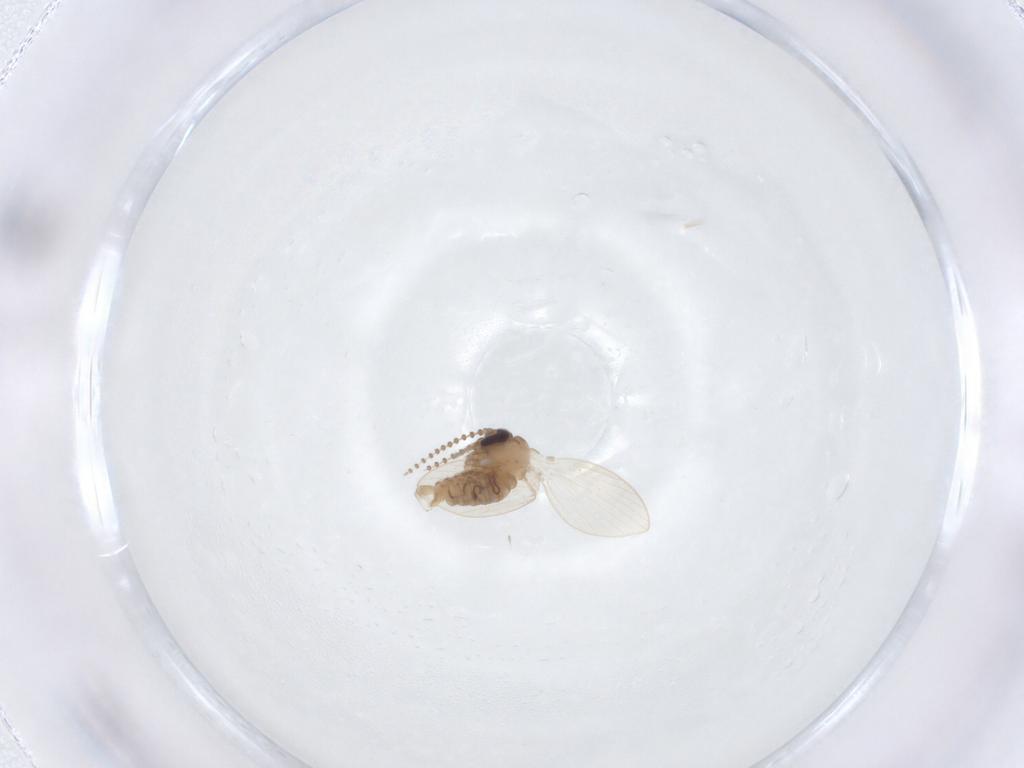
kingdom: Animalia
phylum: Arthropoda
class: Insecta
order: Diptera
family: Psychodidae
